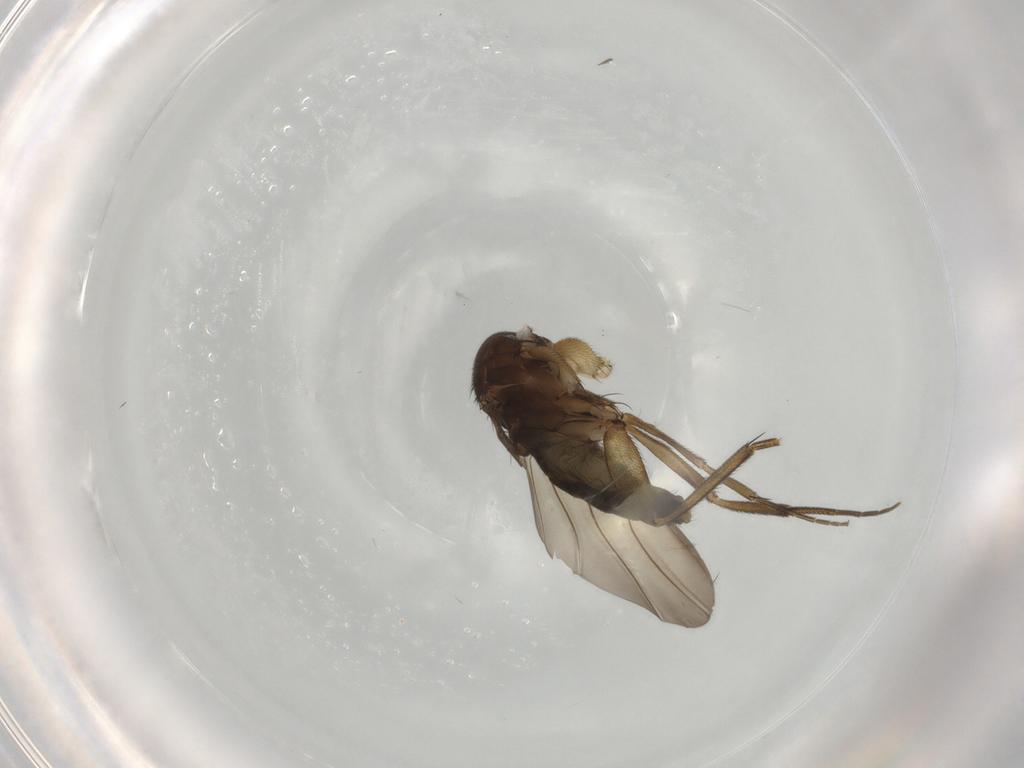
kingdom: Animalia
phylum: Arthropoda
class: Insecta
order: Diptera
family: Phoridae
